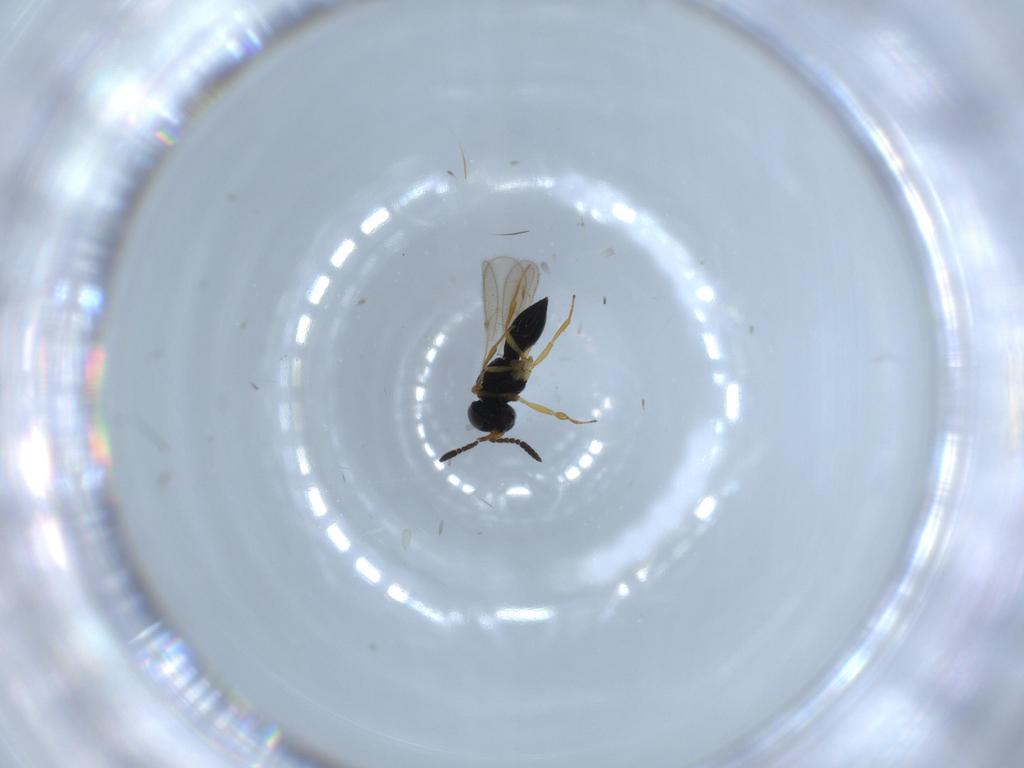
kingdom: Animalia
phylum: Arthropoda
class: Insecta
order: Hymenoptera
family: Scelionidae
